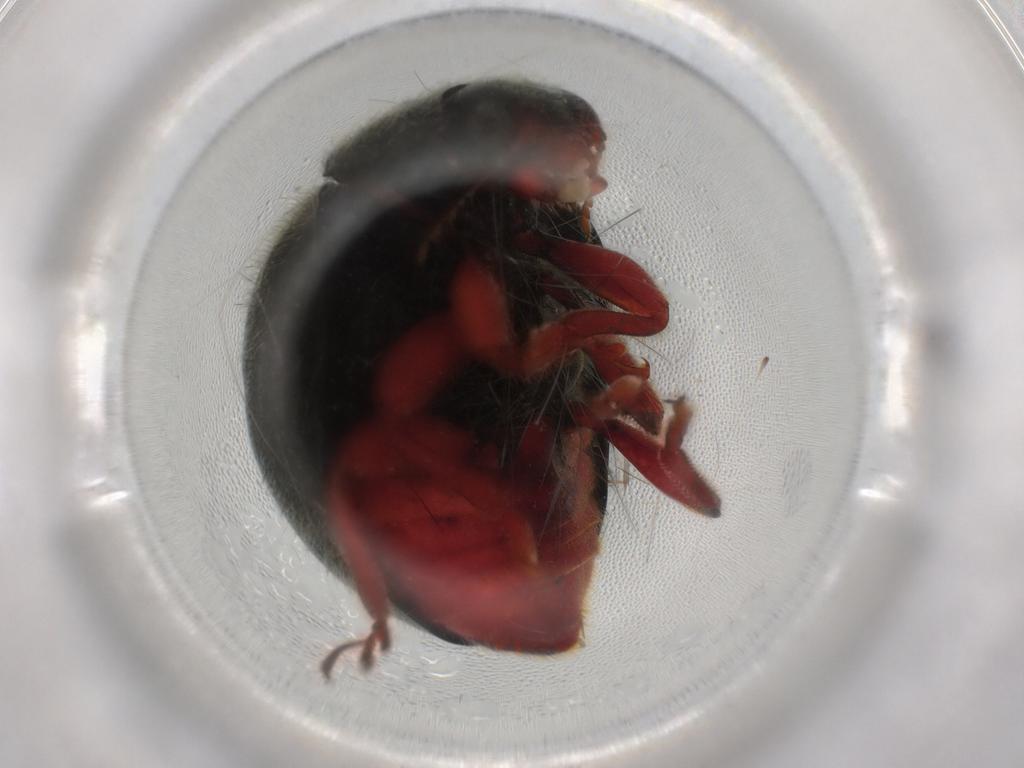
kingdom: Animalia
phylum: Arthropoda
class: Insecta
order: Coleoptera
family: Coccinellidae
